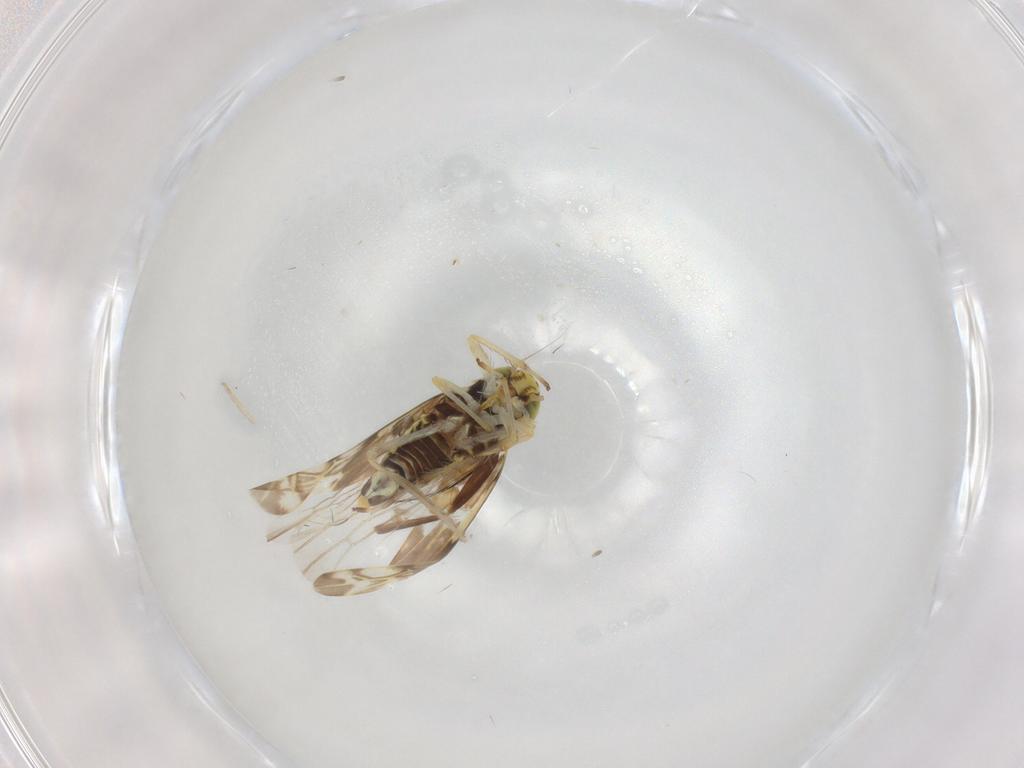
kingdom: Animalia
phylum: Arthropoda
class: Insecta
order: Hemiptera
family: Cicadellidae
